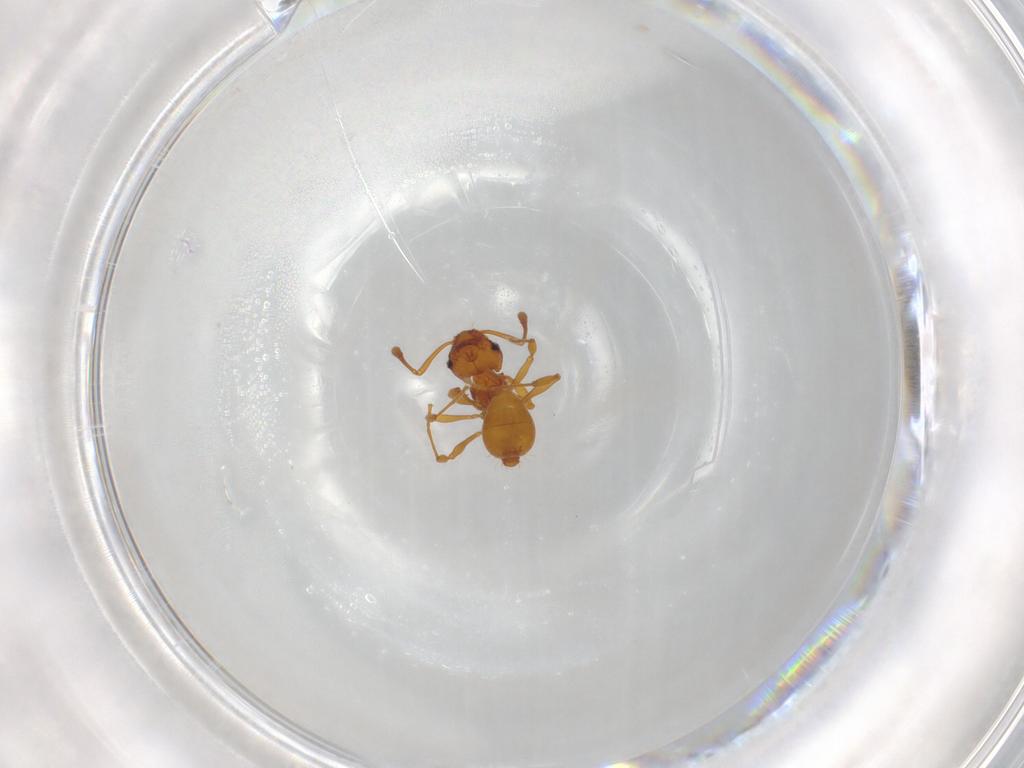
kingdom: Animalia
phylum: Arthropoda
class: Insecta
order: Hymenoptera
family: Formicidae
